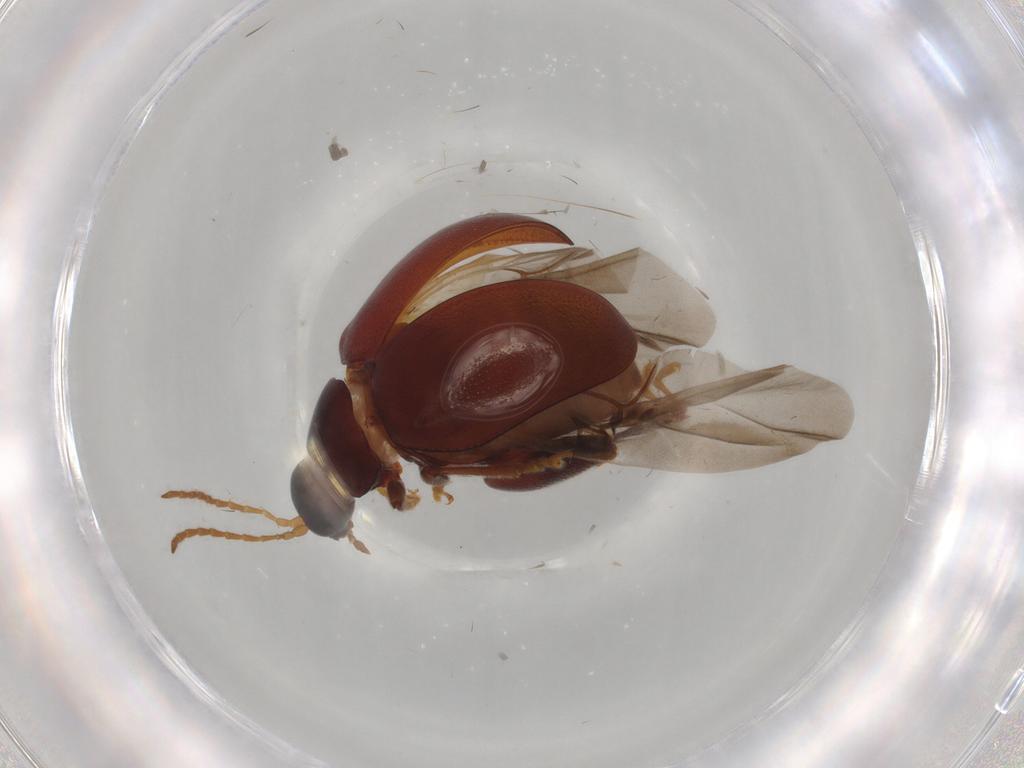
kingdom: Animalia
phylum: Arthropoda
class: Insecta
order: Coleoptera
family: Chrysomelidae
